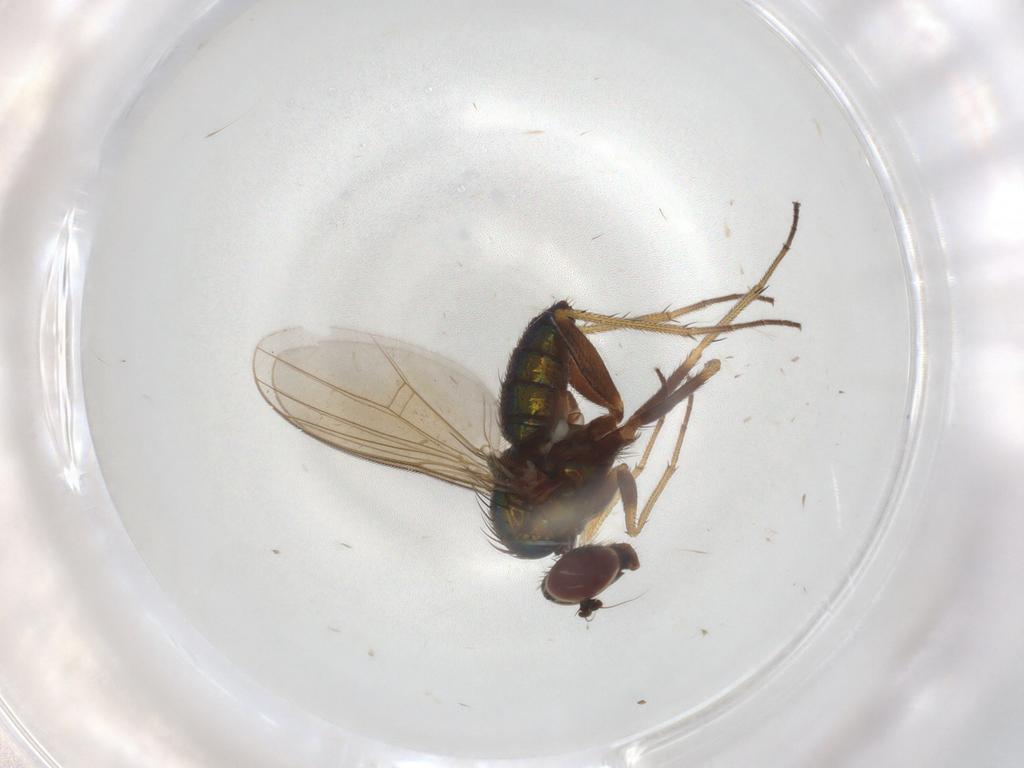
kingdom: Animalia
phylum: Arthropoda
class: Insecta
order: Diptera
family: Dolichopodidae
